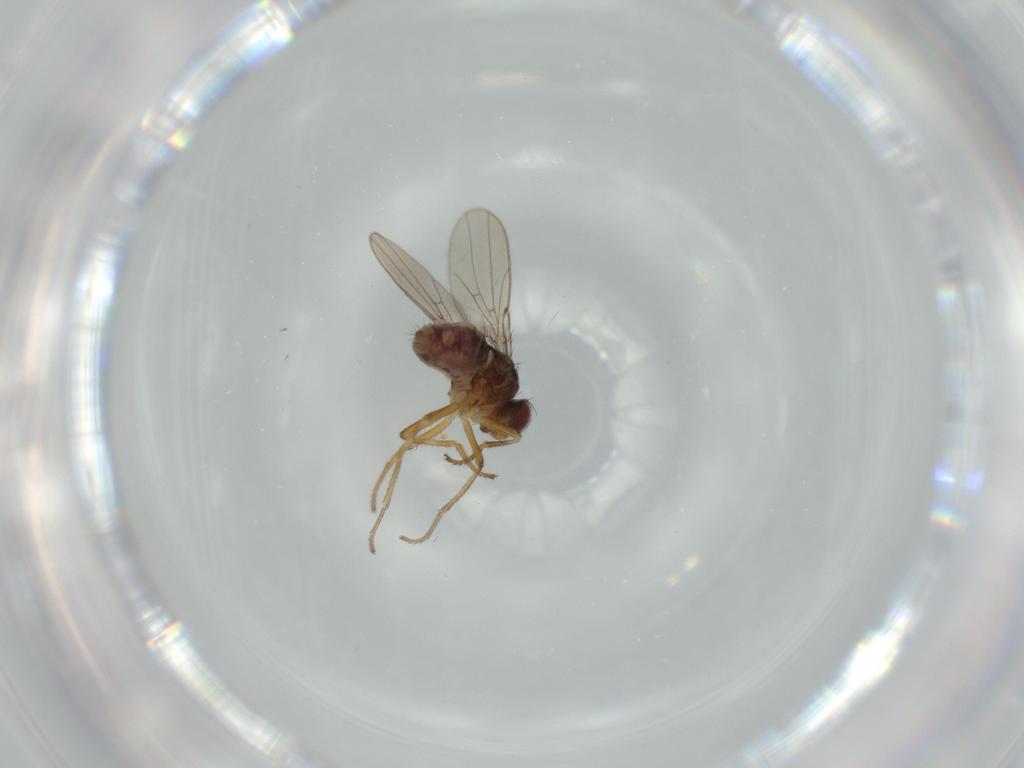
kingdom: Animalia
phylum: Arthropoda
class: Insecta
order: Diptera
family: Ephydridae
